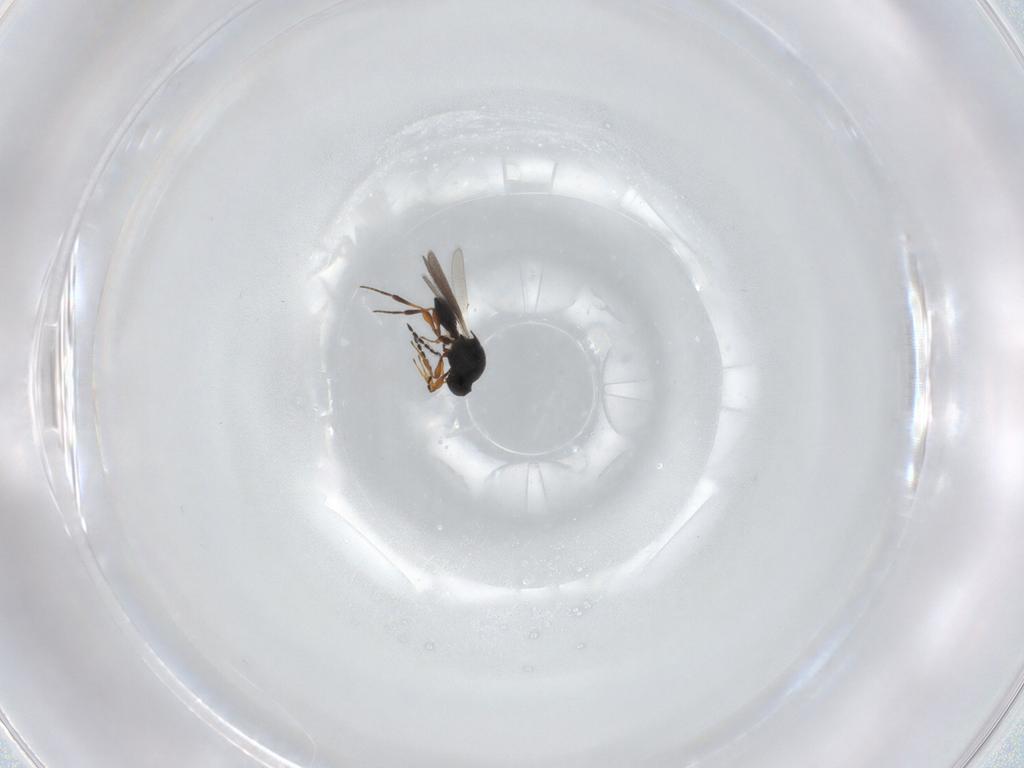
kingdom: Animalia
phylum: Arthropoda
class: Insecta
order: Hymenoptera
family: Platygastridae
